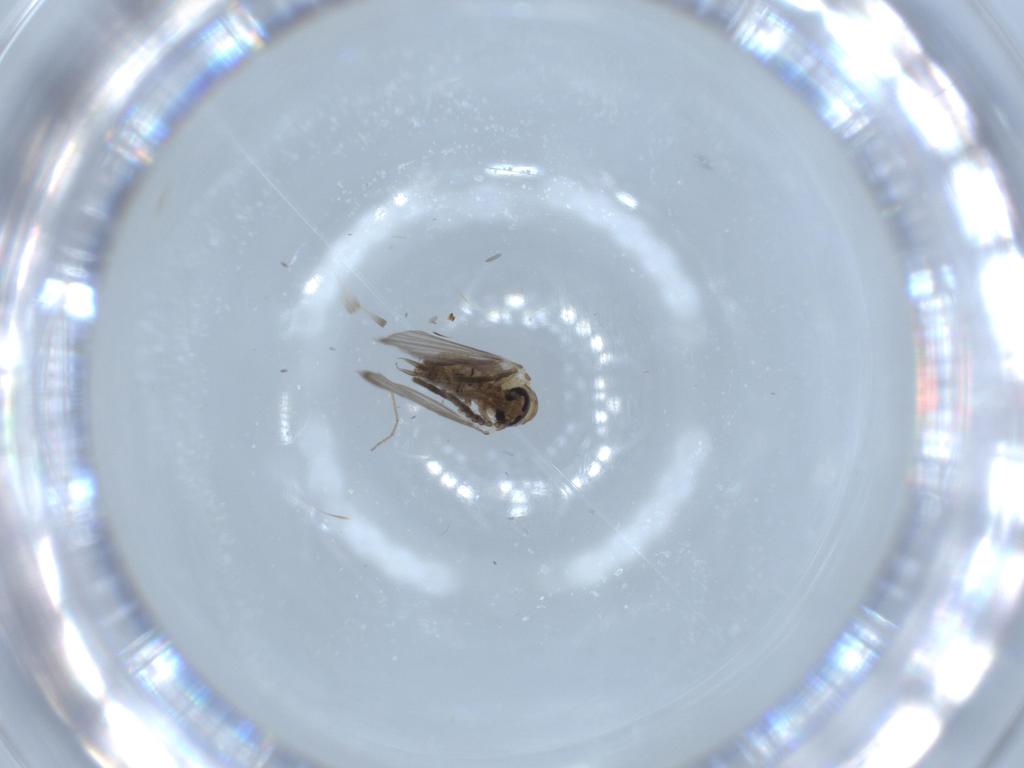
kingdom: Animalia
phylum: Arthropoda
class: Insecta
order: Diptera
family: Psychodidae
